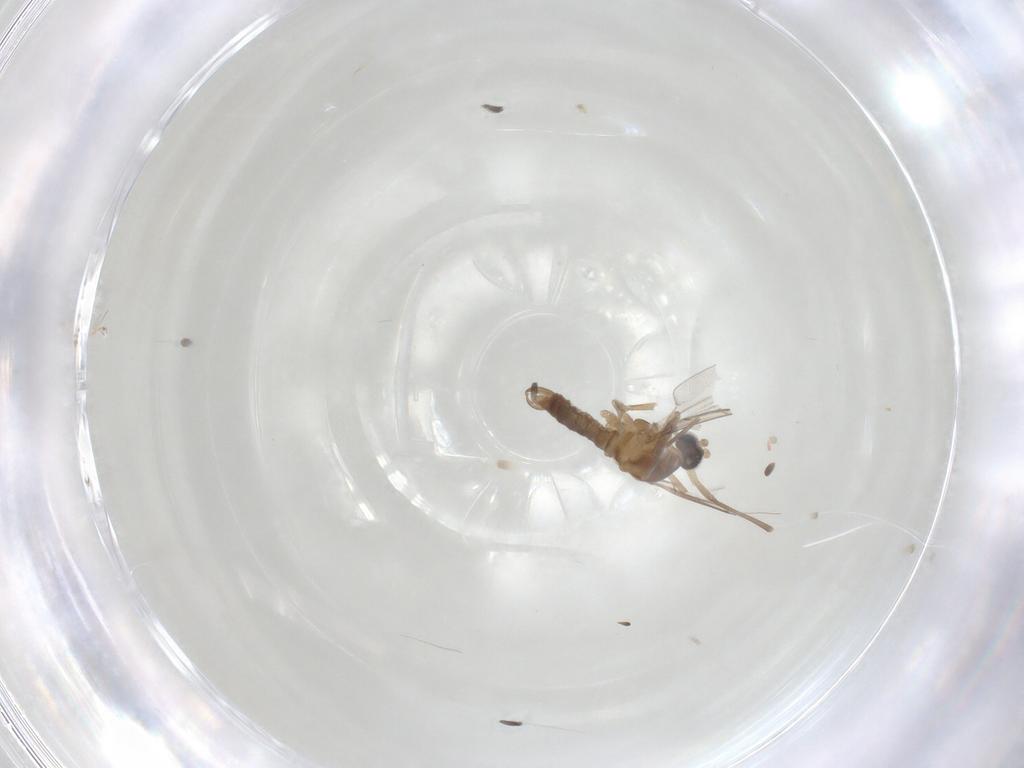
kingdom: Animalia
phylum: Arthropoda
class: Insecta
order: Diptera
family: Cecidomyiidae
